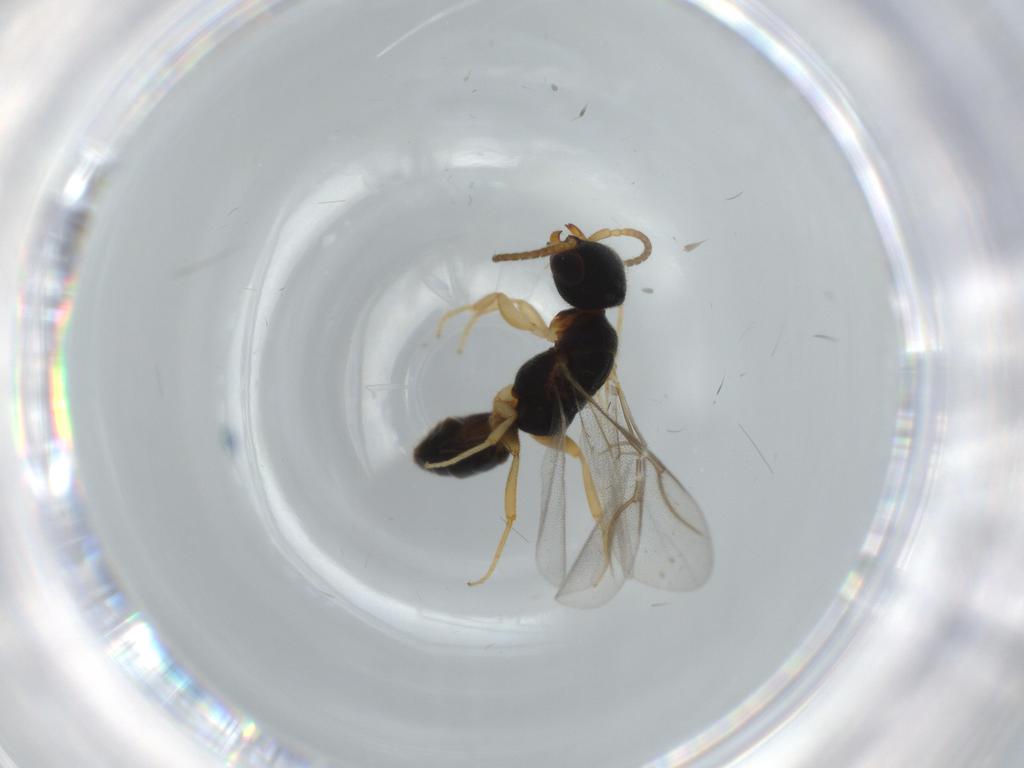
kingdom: Animalia
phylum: Arthropoda
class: Insecta
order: Hymenoptera
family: Bethylidae
